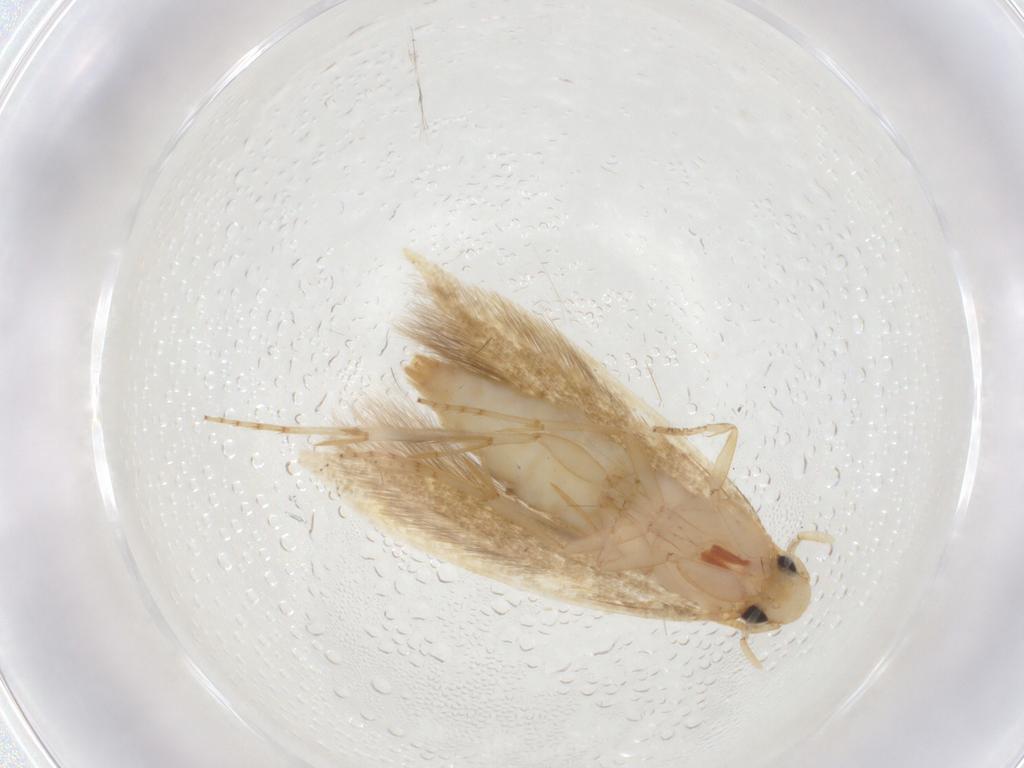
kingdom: Animalia
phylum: Arthropoda
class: Insecta
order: Lepidoptera
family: Tineidae
